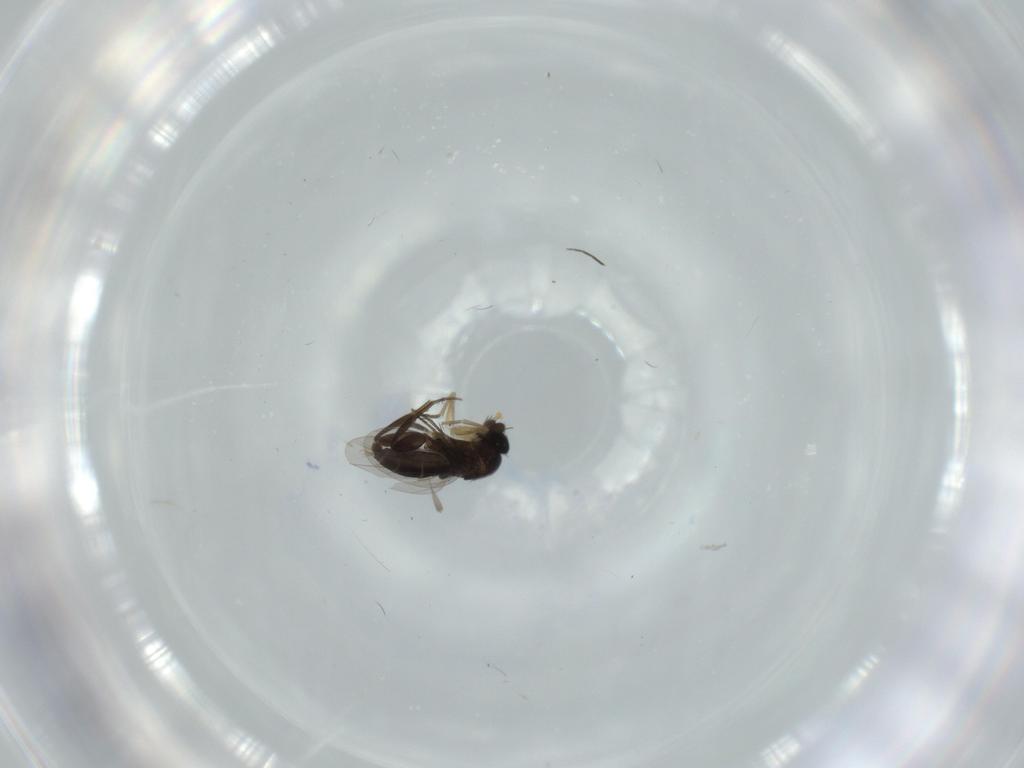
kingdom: Animalia
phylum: Arthropoda
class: Insecta
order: Diptera
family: Phoridae
